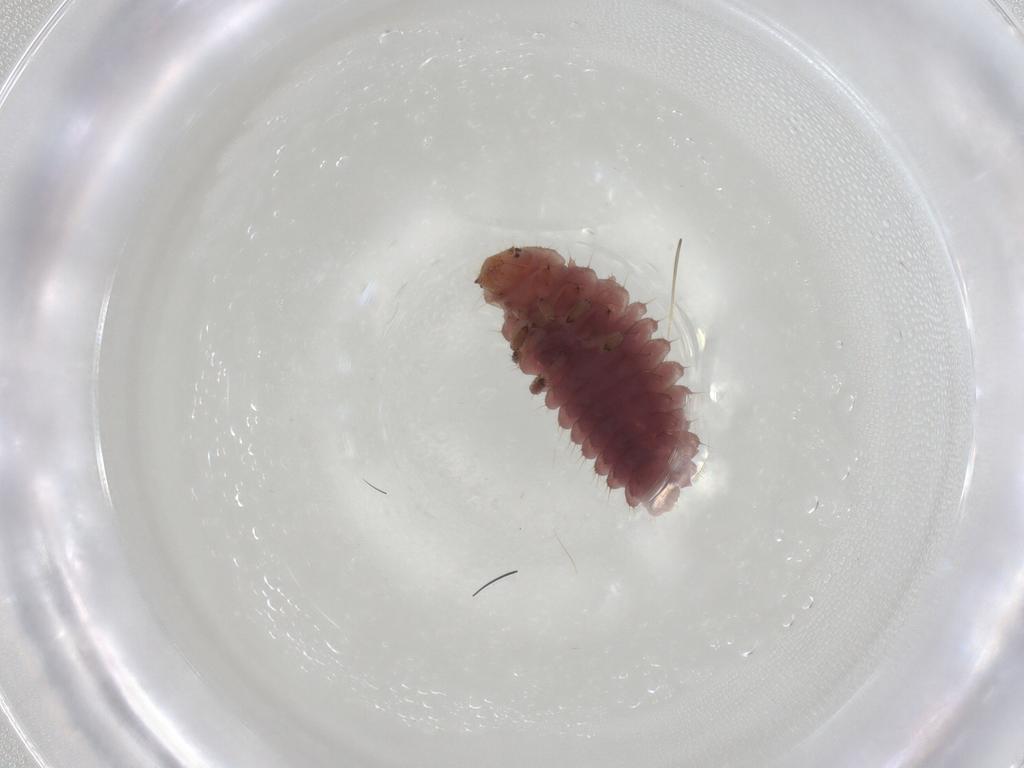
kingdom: Animalia
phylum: Arthropoda
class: Insecta
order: Coleoptera
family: Coccinellidae
